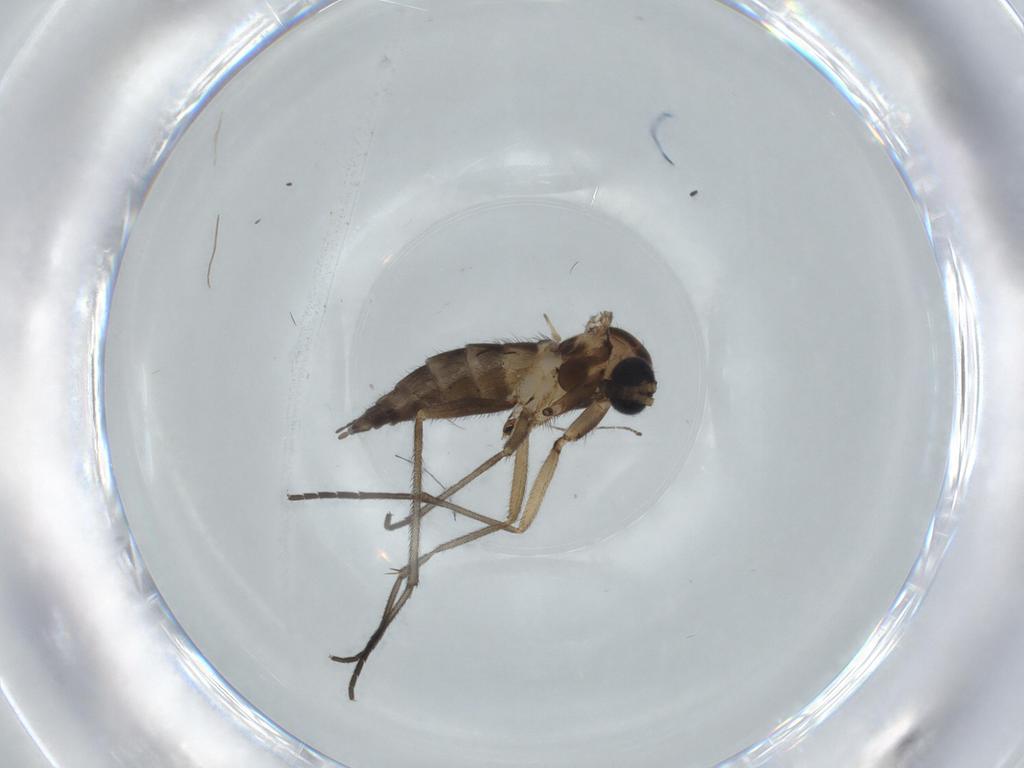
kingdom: Animalia
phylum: Arthropoda
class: Insecta
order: Diptera
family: Sciaridae
